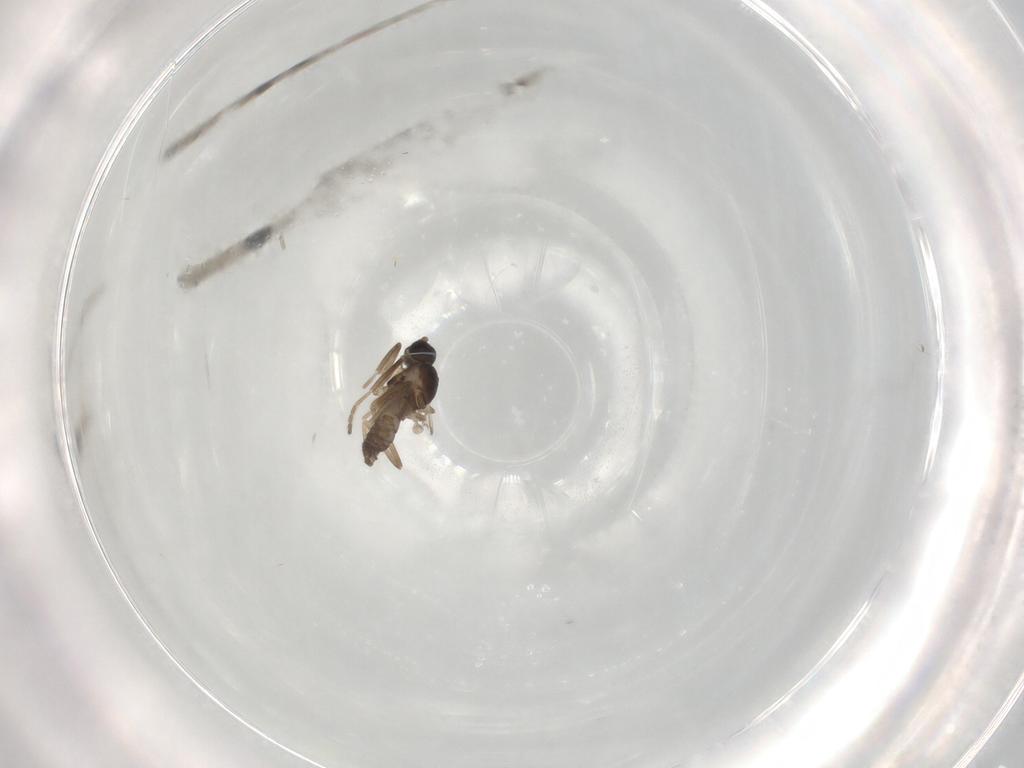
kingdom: Animalia
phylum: Arthropoda
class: Insecta
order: Diptera
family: Cecidomyiidae
